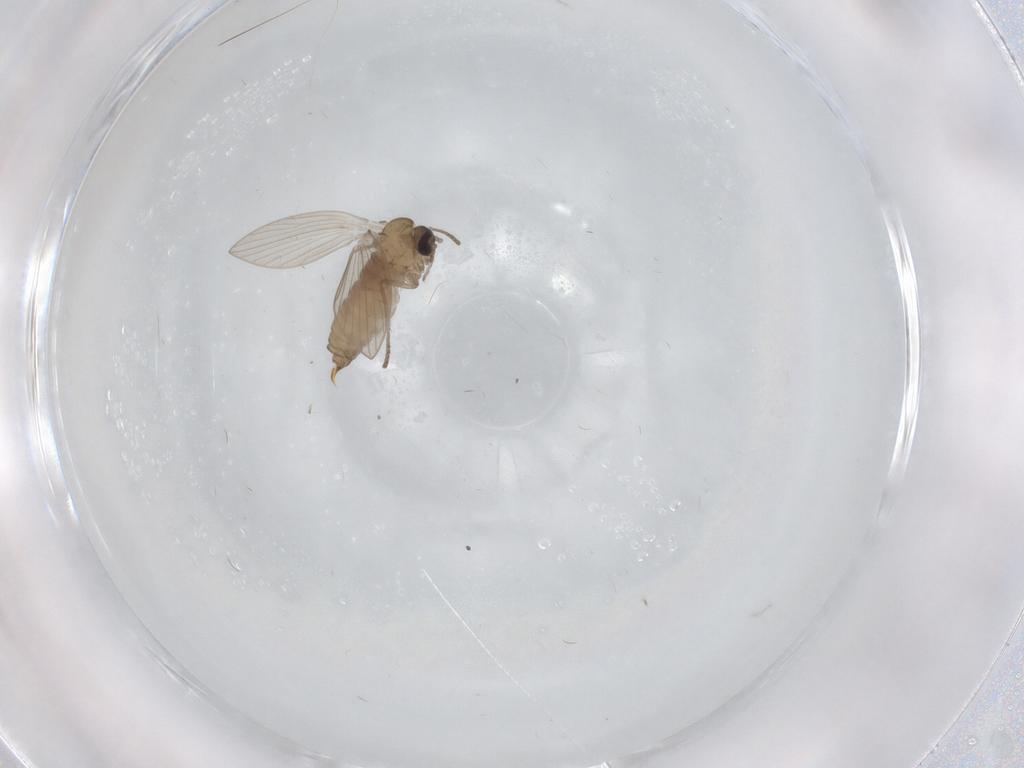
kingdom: Animalia
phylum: Arthropoda
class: Insecta
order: Diptera
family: Psychodidae
